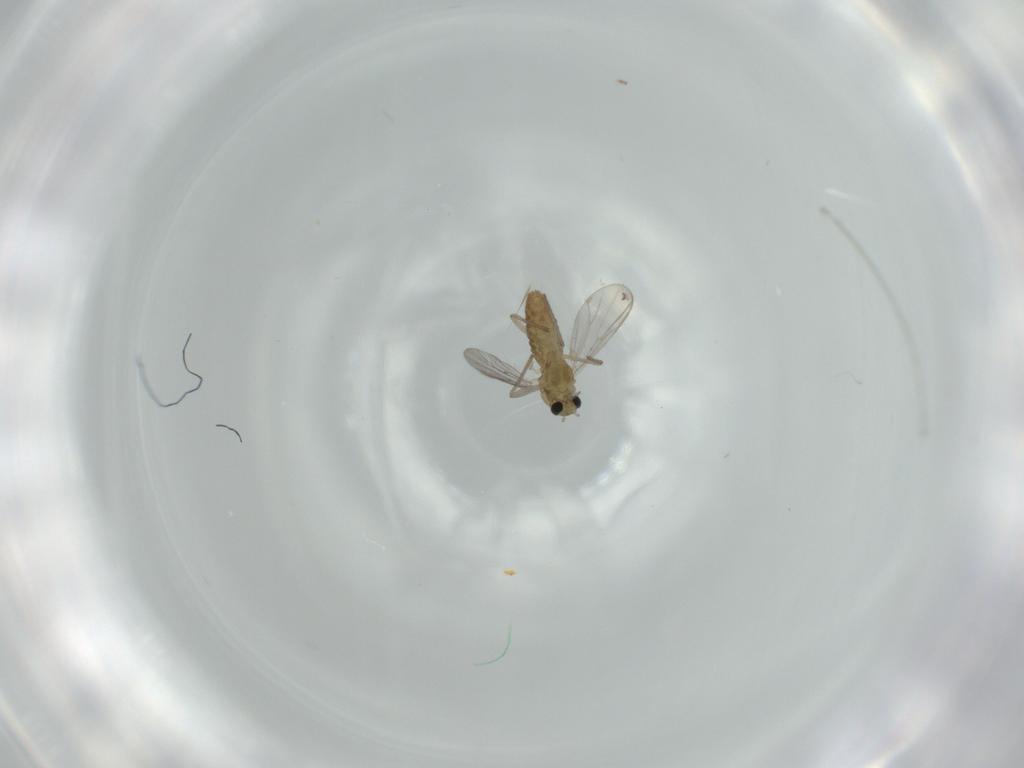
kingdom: Animalia
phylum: Arthropoda
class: Insecta
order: Diptera
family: Chironomidae
